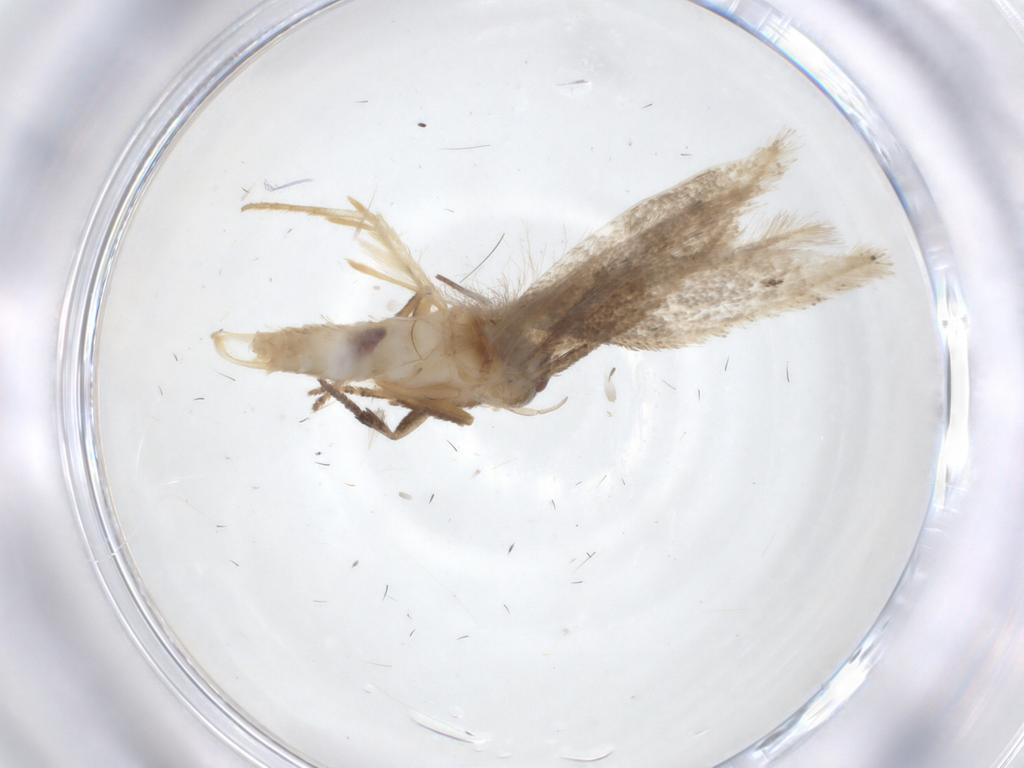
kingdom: Animalia
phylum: Arthropoda
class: Insecta
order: Lepidoptera
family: Elachistidae
